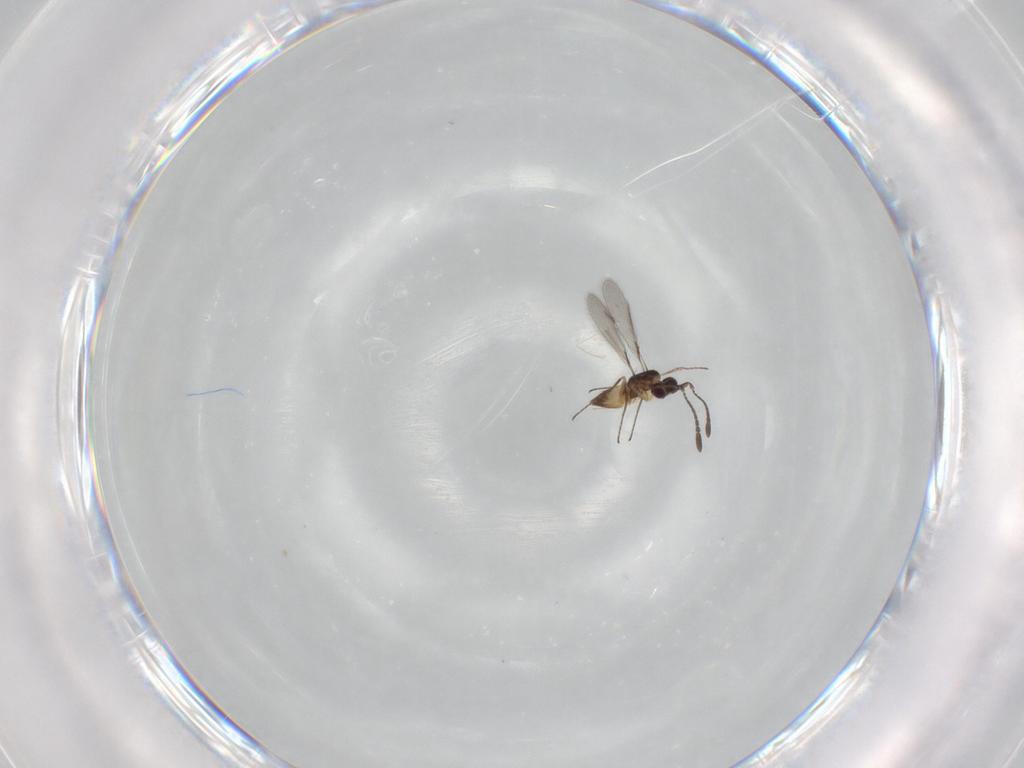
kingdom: Animalia
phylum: Arthropoda
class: Insecta
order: Hymenoptera
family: Mymaridae
